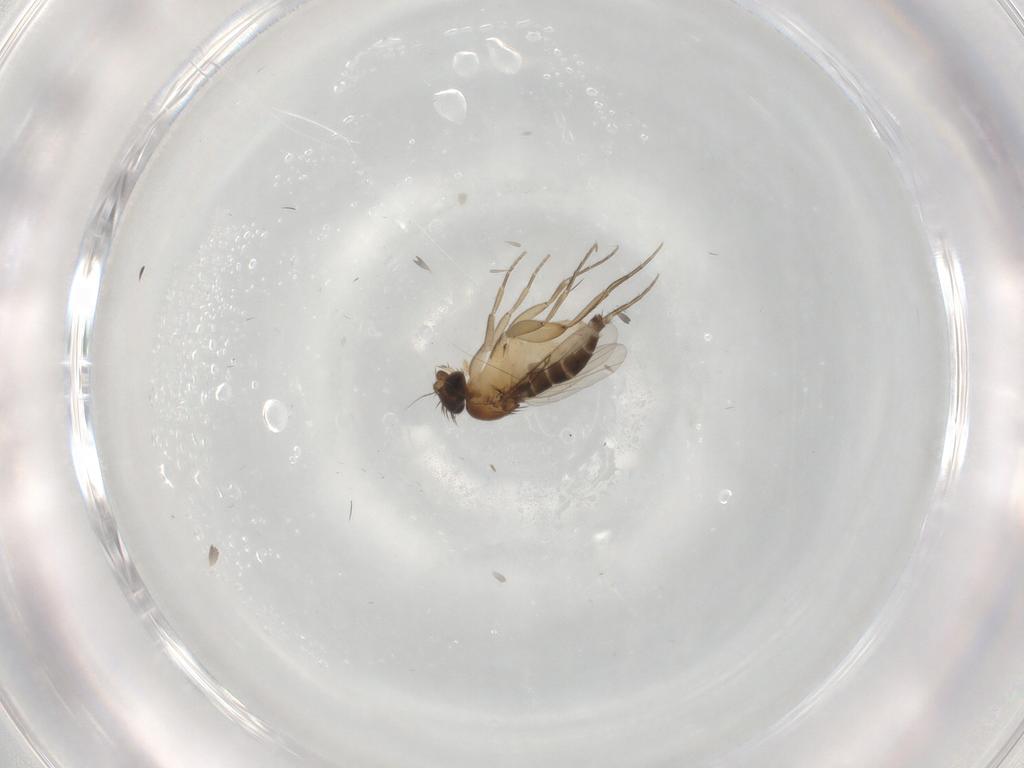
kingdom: Animalia
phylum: Arthropoda
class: Insecta
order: Diptera
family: Phoridae
